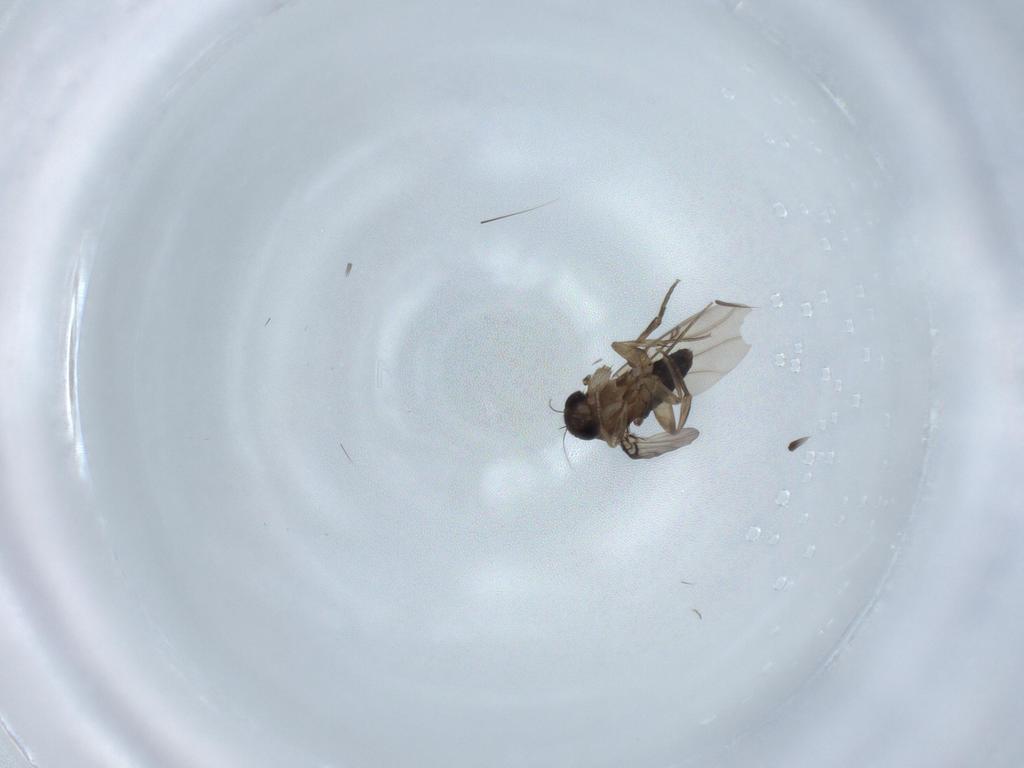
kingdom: Animalia
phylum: Arthropoda
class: Insecta
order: Diptera
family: Phoridae
